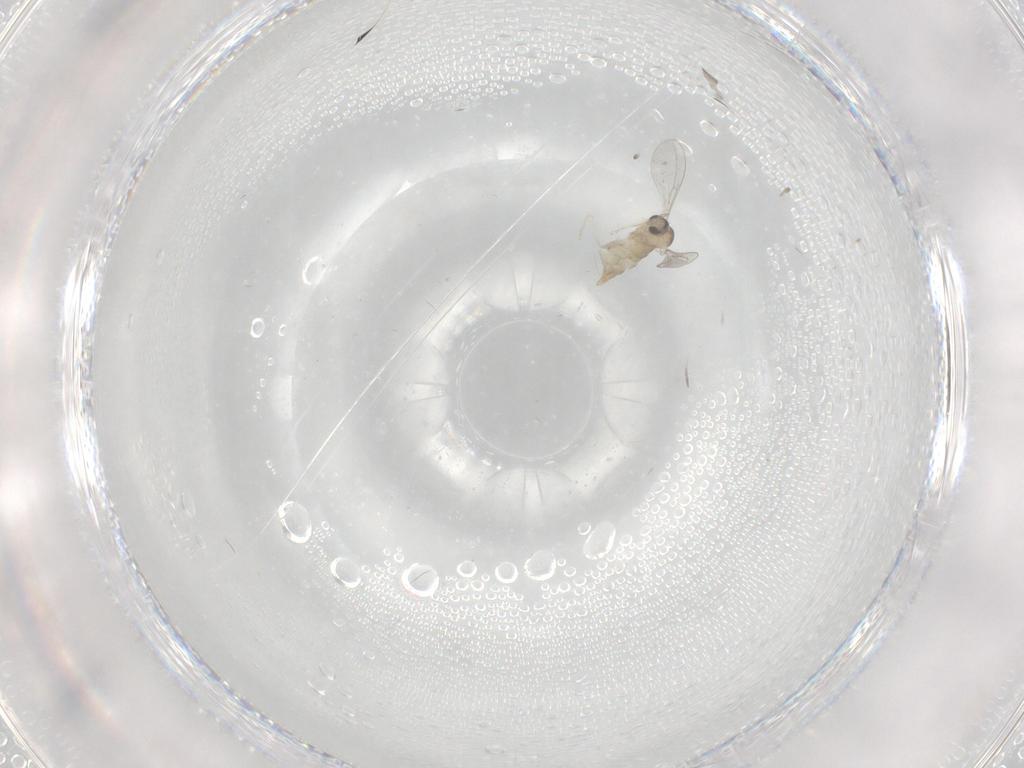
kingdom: Animalia
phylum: Arthropoda
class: Insecta
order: Diptera
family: Cecidomyiidae
